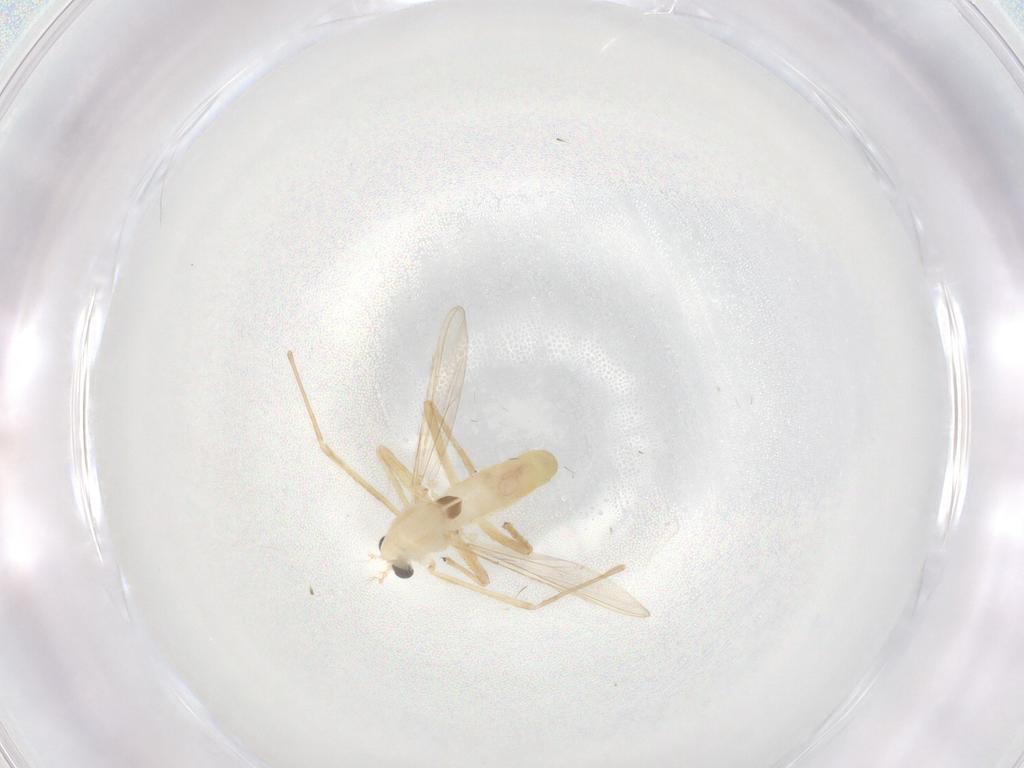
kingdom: Animalia
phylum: Arthropoda
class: Insecta
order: Diptera
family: Chironomidae
